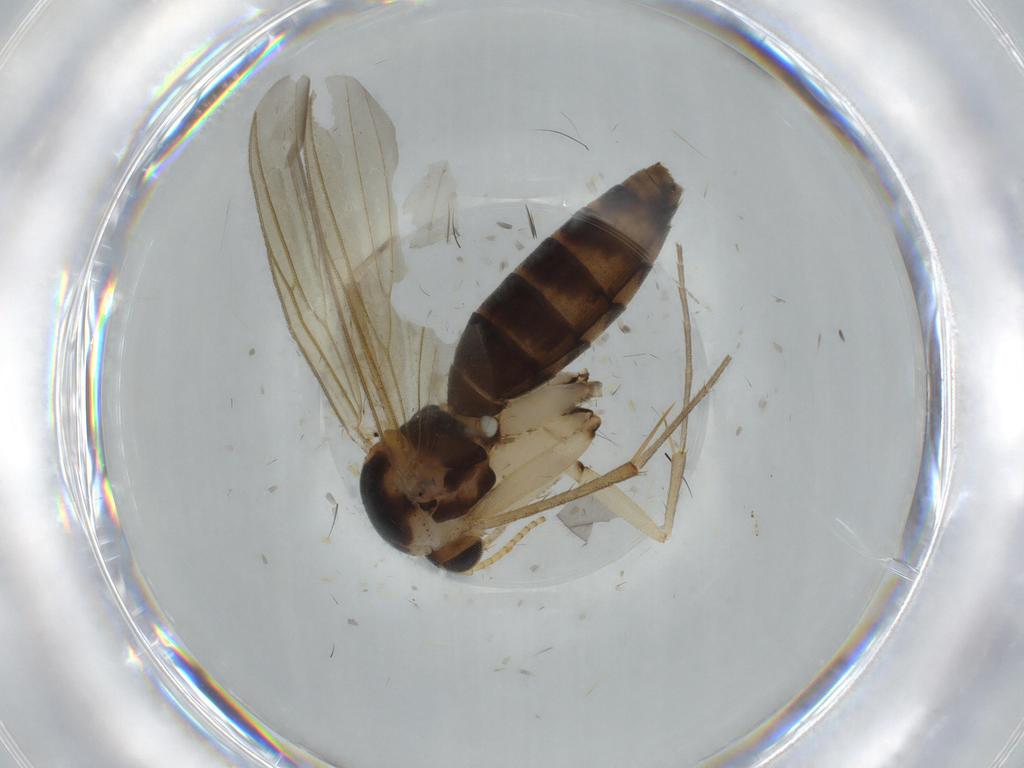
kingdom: Animalia
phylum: Arthropoda
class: Insecta
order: Diptera
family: Mycetophilidae
